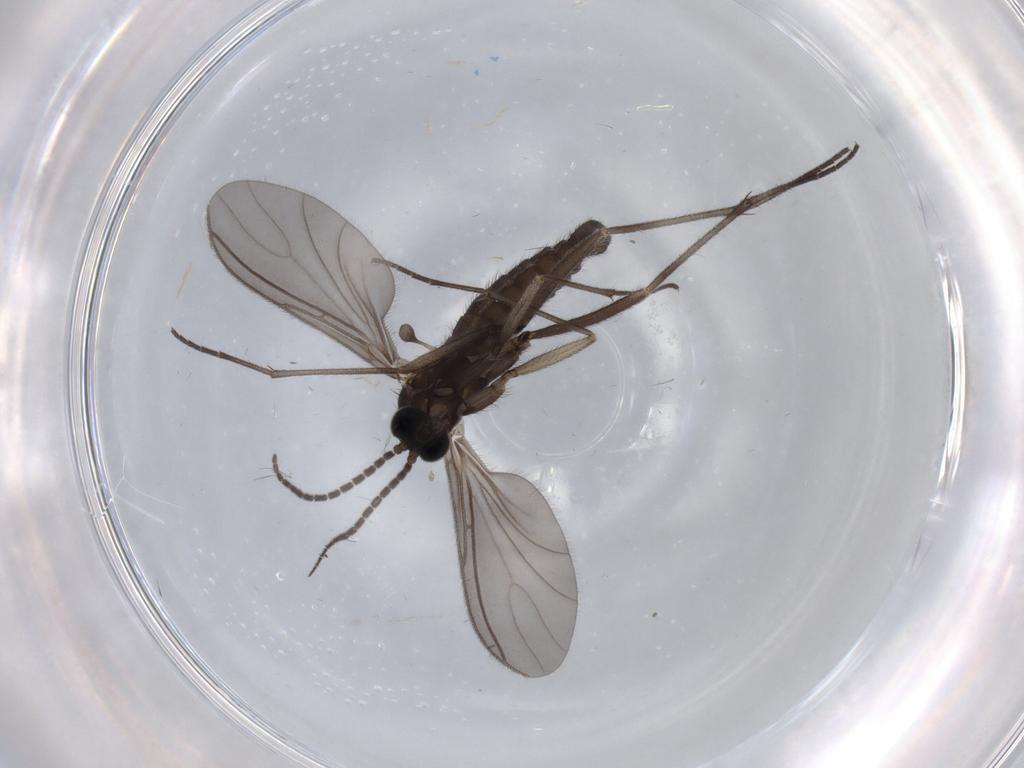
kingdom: Animalia
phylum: Arthropoda
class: Insecta
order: Diptera
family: Sciaridae
